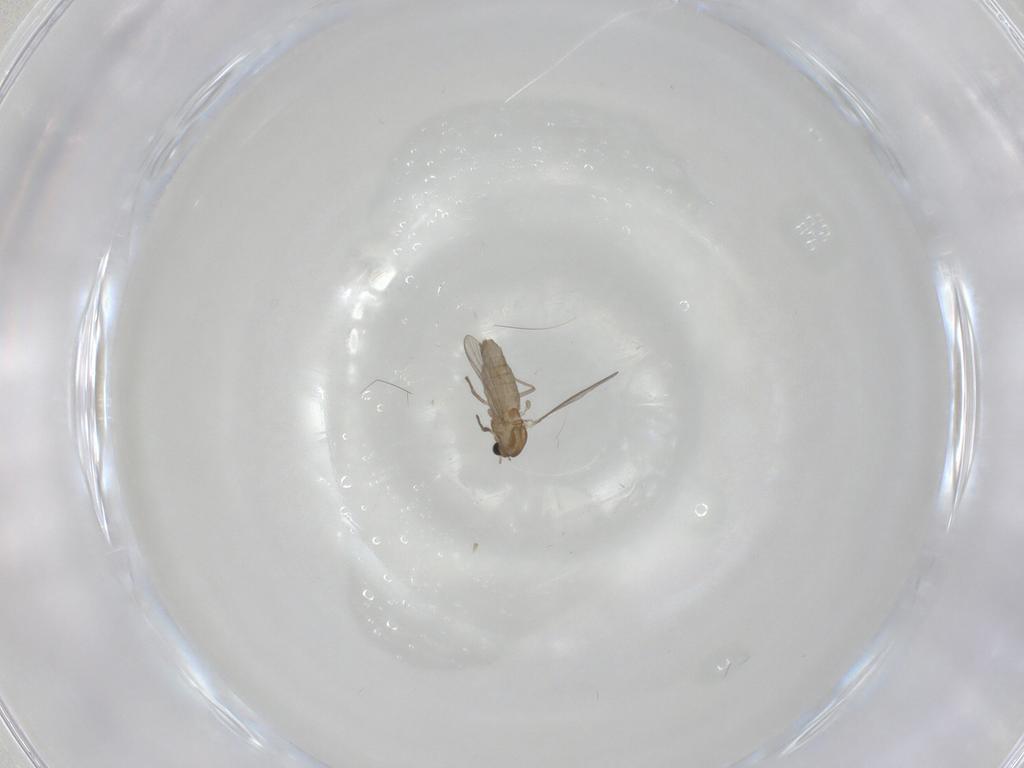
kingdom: Animalia
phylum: Arthropoda
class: Insecta
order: Diptera
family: Chironomidae
